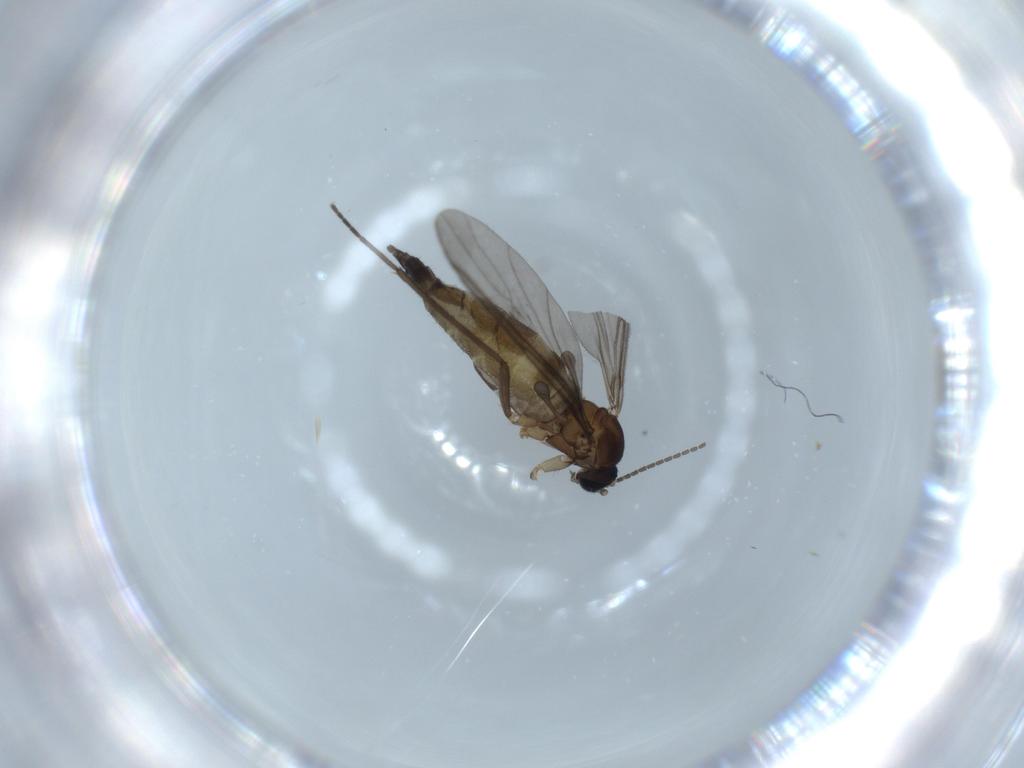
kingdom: Animalia
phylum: Arthropoda
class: Insecta
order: Diptera
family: Sciaridae
